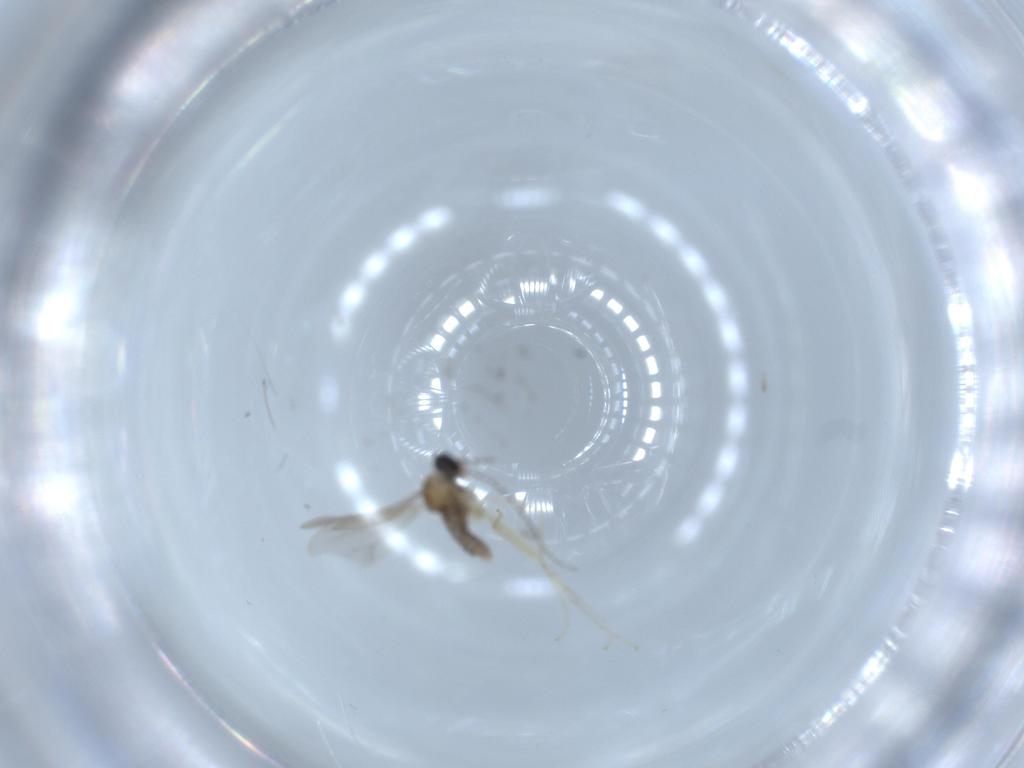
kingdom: Animalia
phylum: Arthropoda
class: Insecta
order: Diptera
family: Cecidomyiidae
